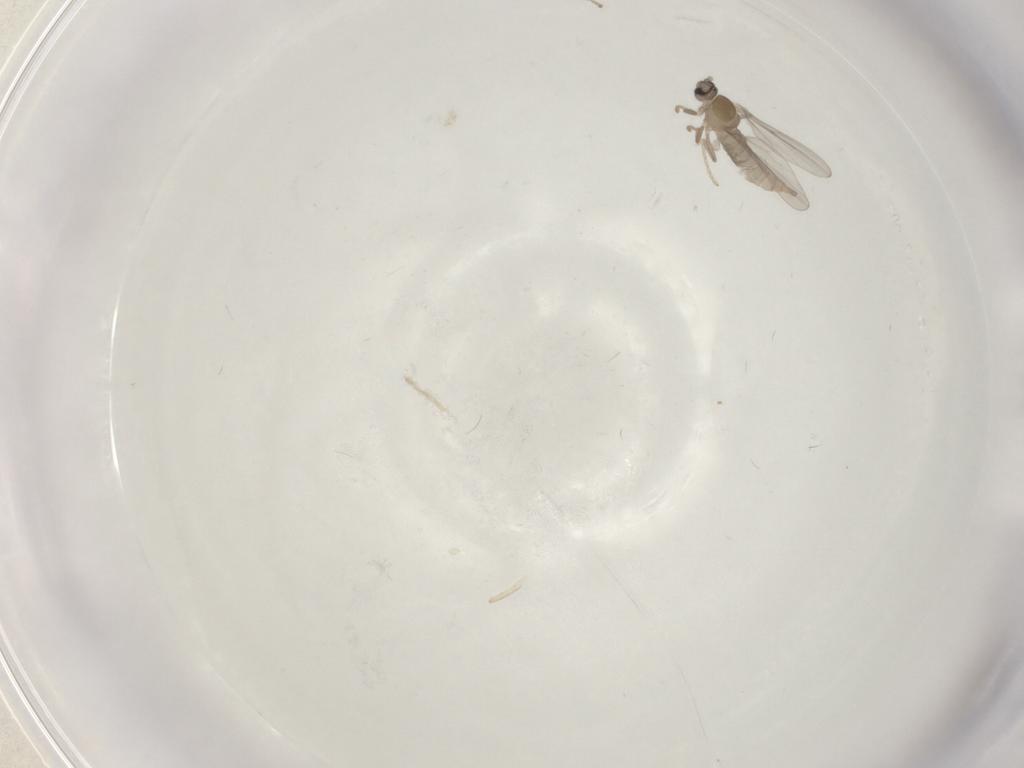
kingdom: Animalia
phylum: Arthropoda
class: Insecta
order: Diptera
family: Cecidomyiidae
